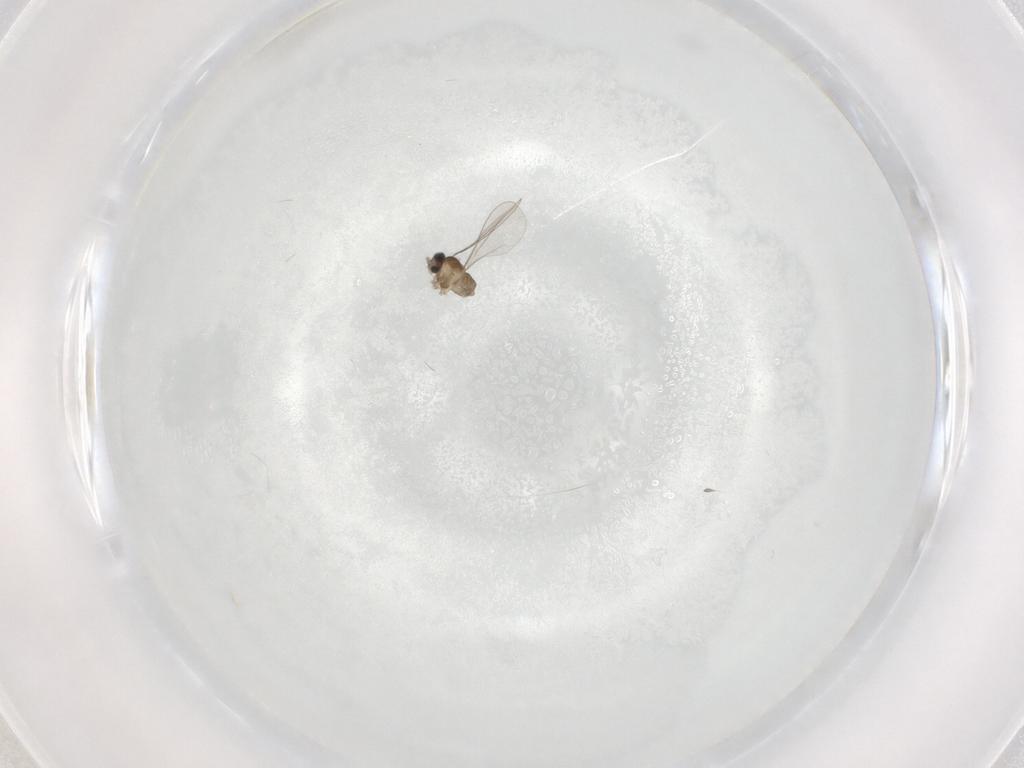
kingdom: Animalia
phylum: Arthropoda
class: Insecta
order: Diptera
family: Cecidomyiidae
